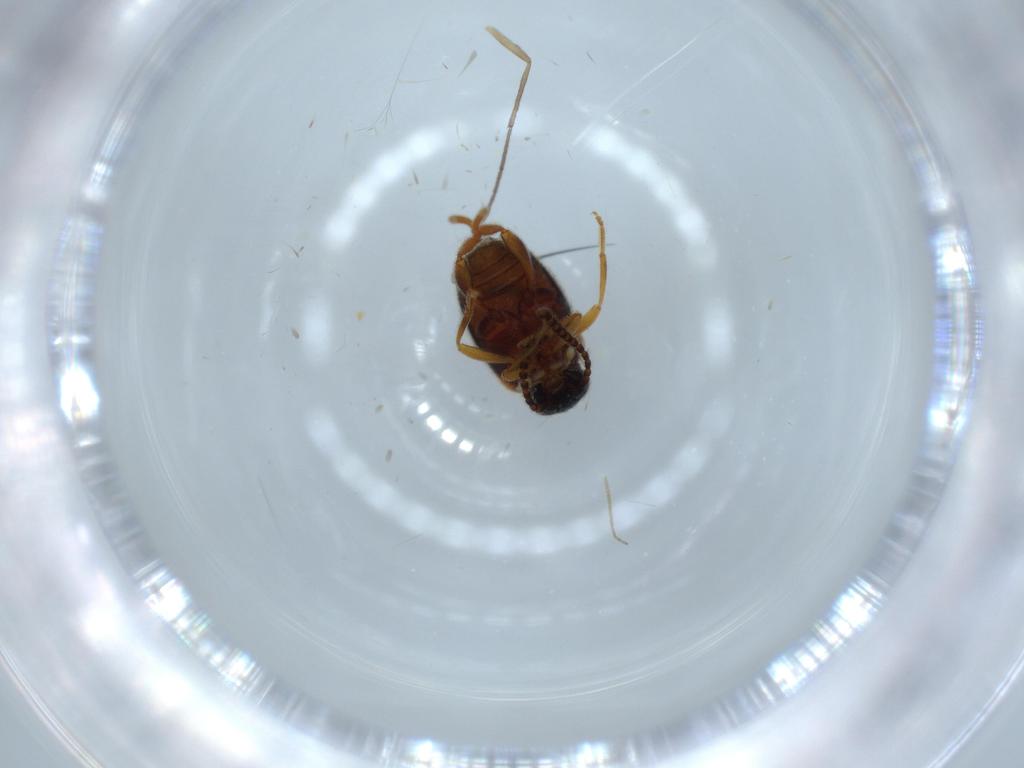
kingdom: Animalia
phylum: Arthropoda
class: Insecta
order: Coleoptera
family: Aderidae
